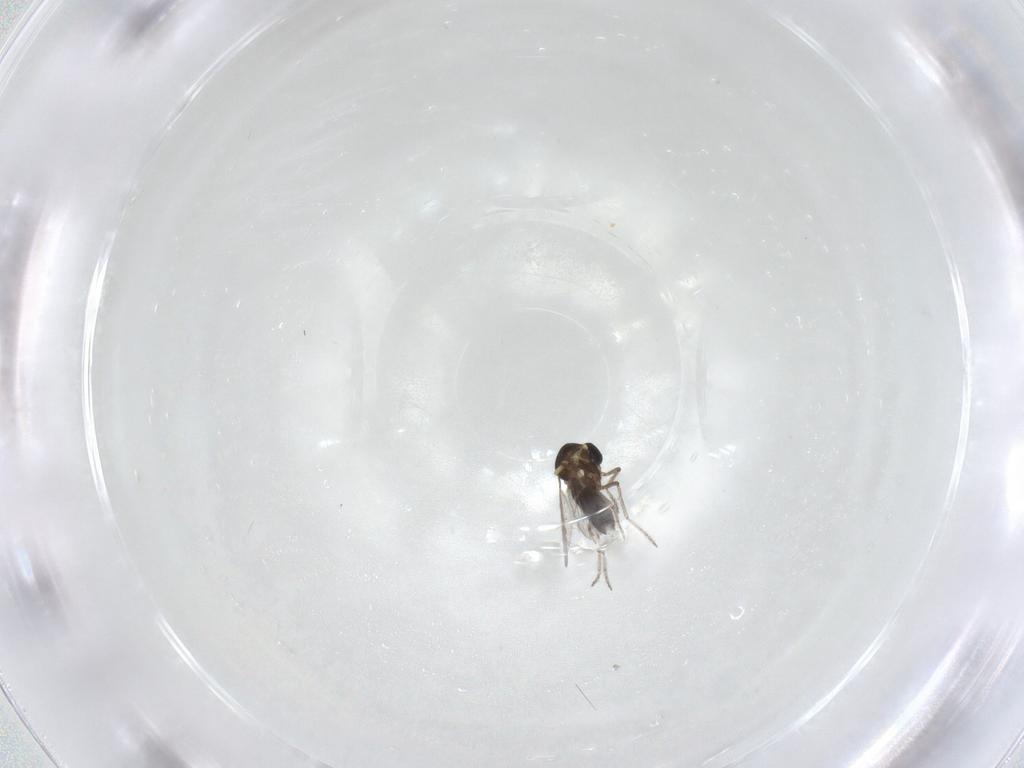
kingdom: Animalia
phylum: Arthropoda
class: Insecta
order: Diptera
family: Ceratopogonidae
